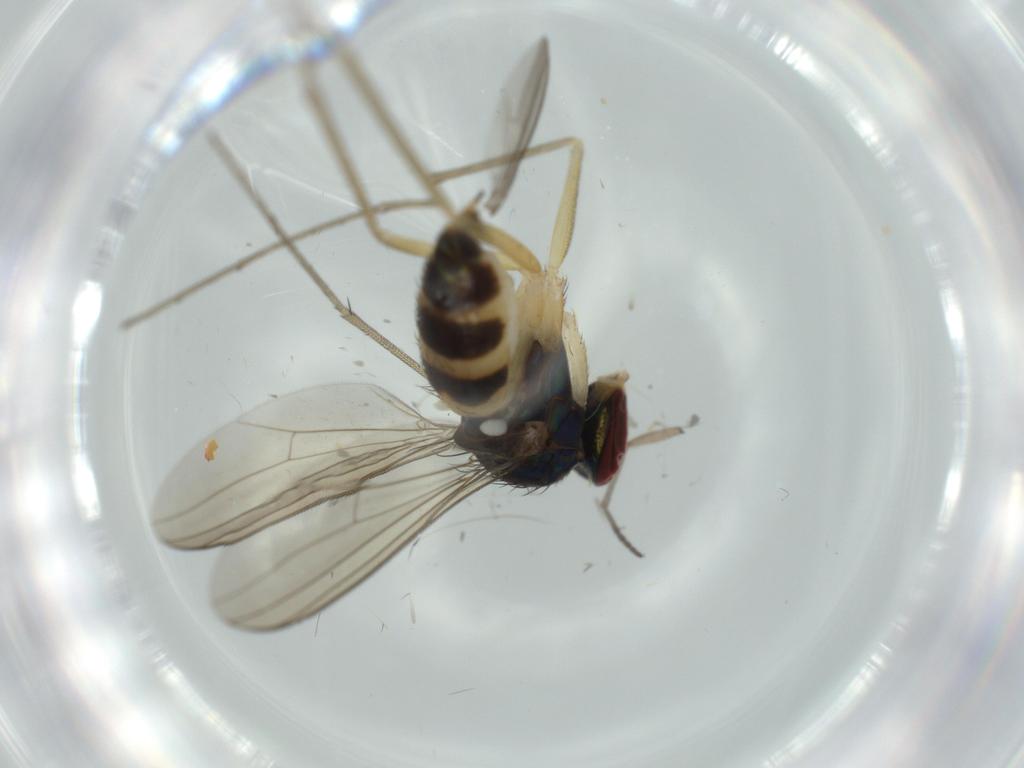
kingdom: Animalia
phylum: Arthropoda
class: Insecta
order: Diptera
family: Dolichopodidae
